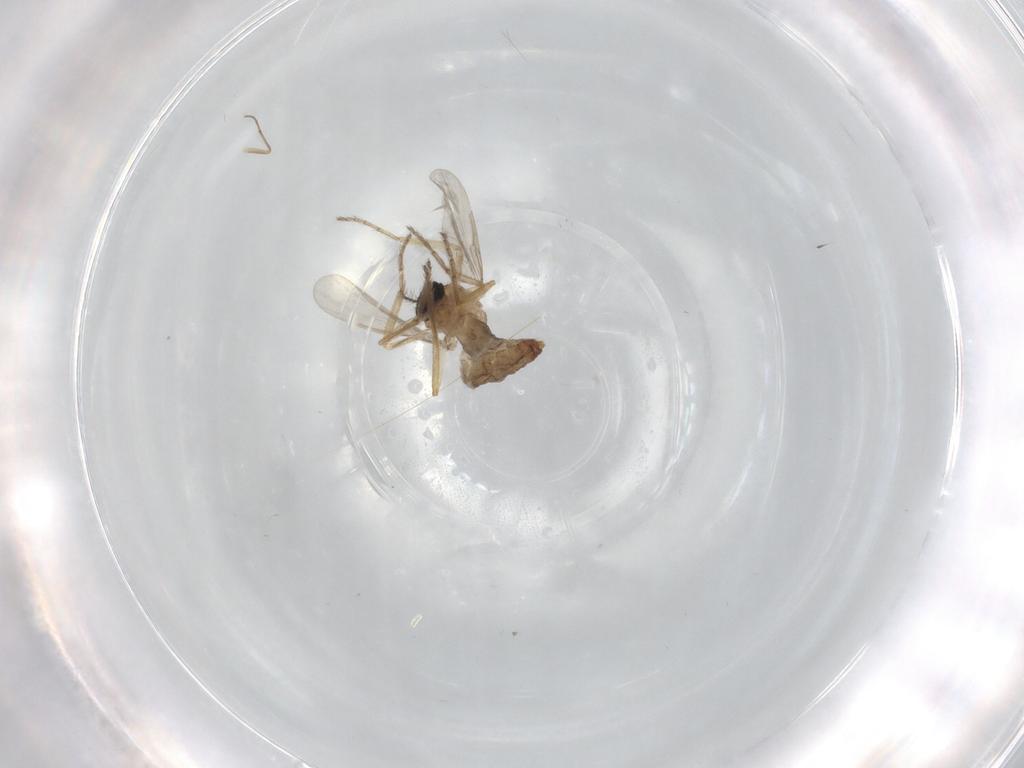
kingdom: Animalia
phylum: Arthropoda
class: Insecta
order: Diptera
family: Ceratopogonidae
